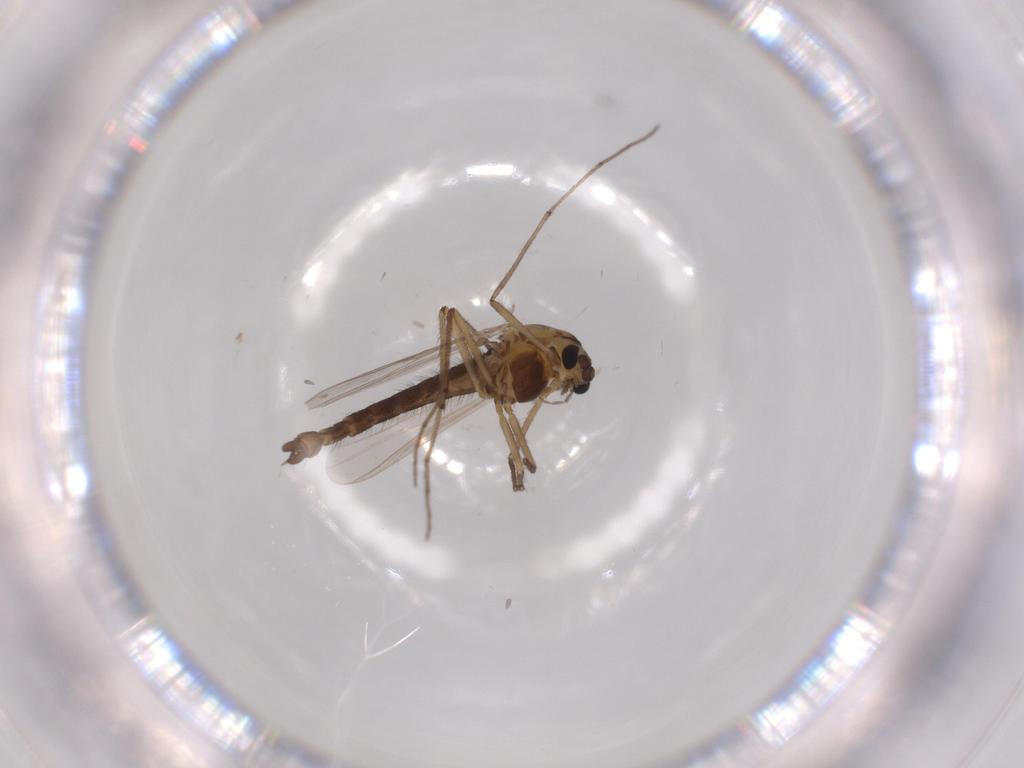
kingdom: Animalia
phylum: Arthropoda
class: Insecta
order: Diptera
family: Chironomidae
